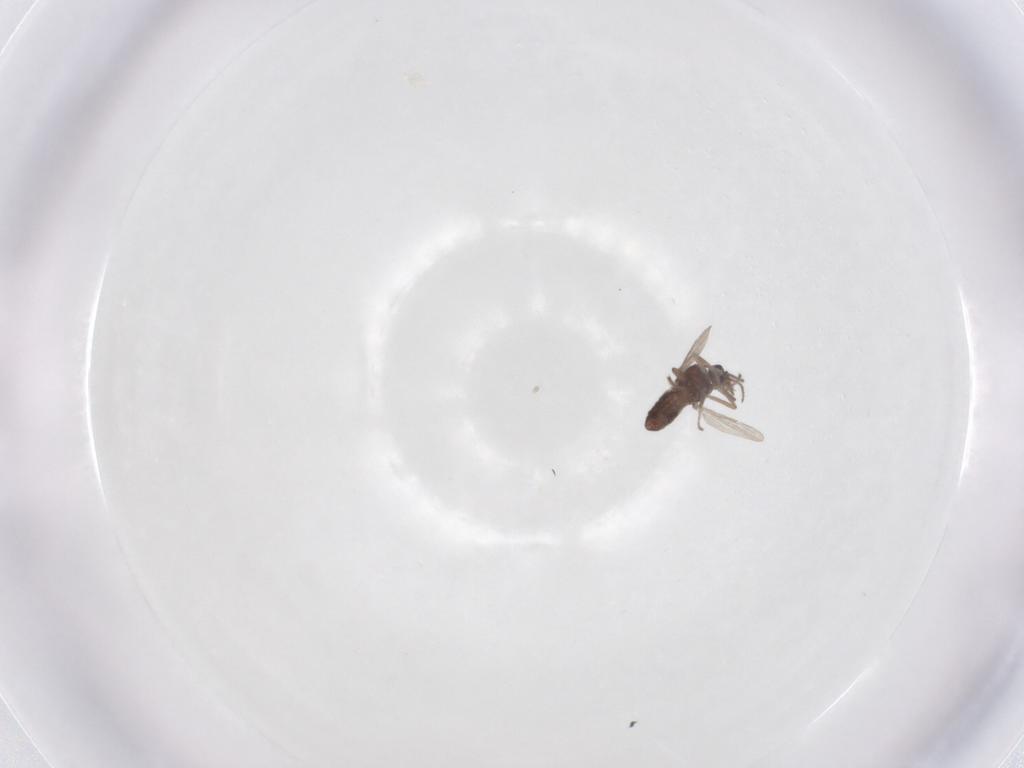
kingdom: Animalia
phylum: Arthropoda
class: Insecta
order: Diptera
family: Ceratopogonidae
